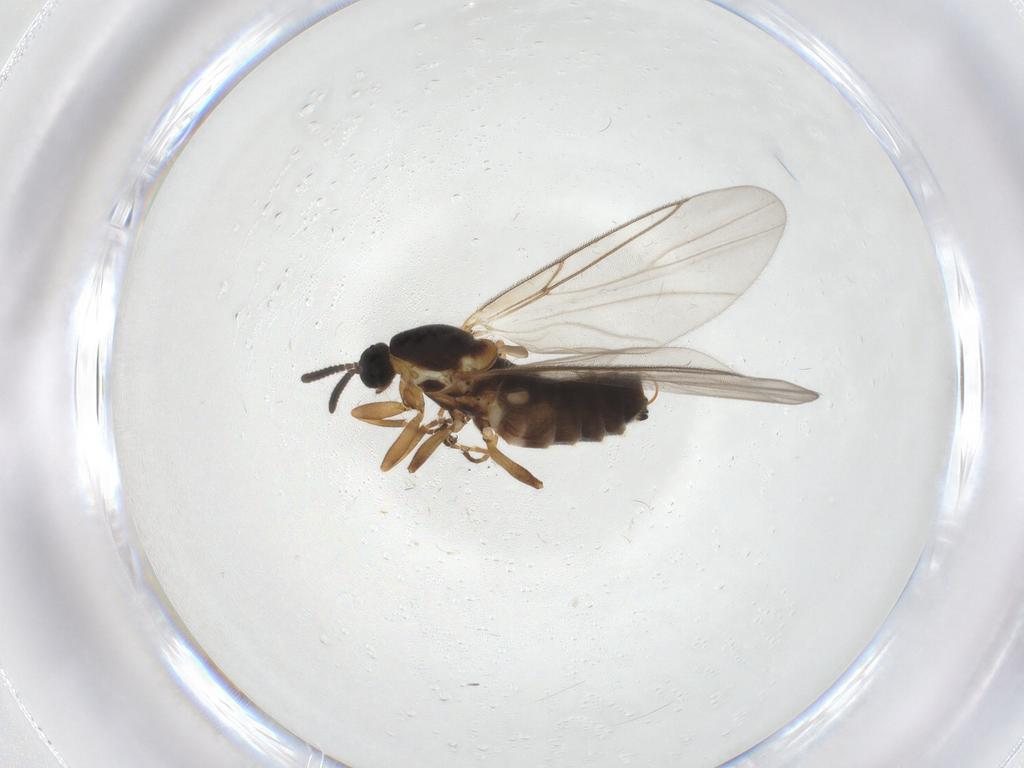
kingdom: Animalia
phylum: Arthropoda
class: Insecta
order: Diptera
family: Scatopsidae
